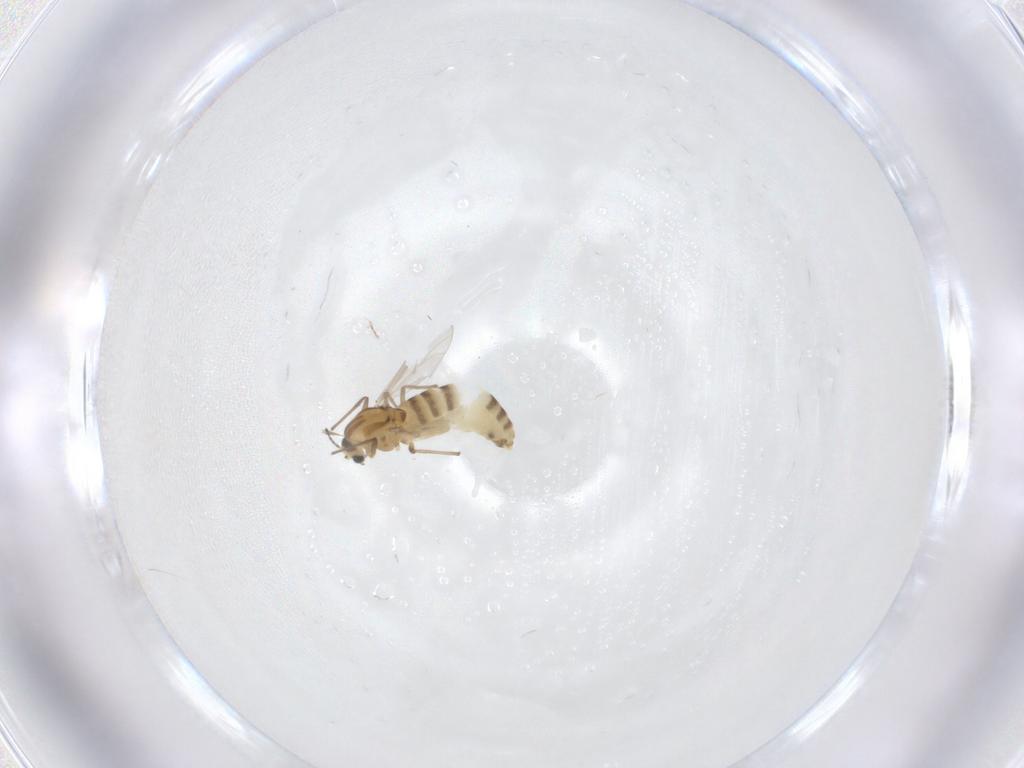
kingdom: Animalia
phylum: Arthropoda
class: Insecta
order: Diptera
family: Chironomidae
